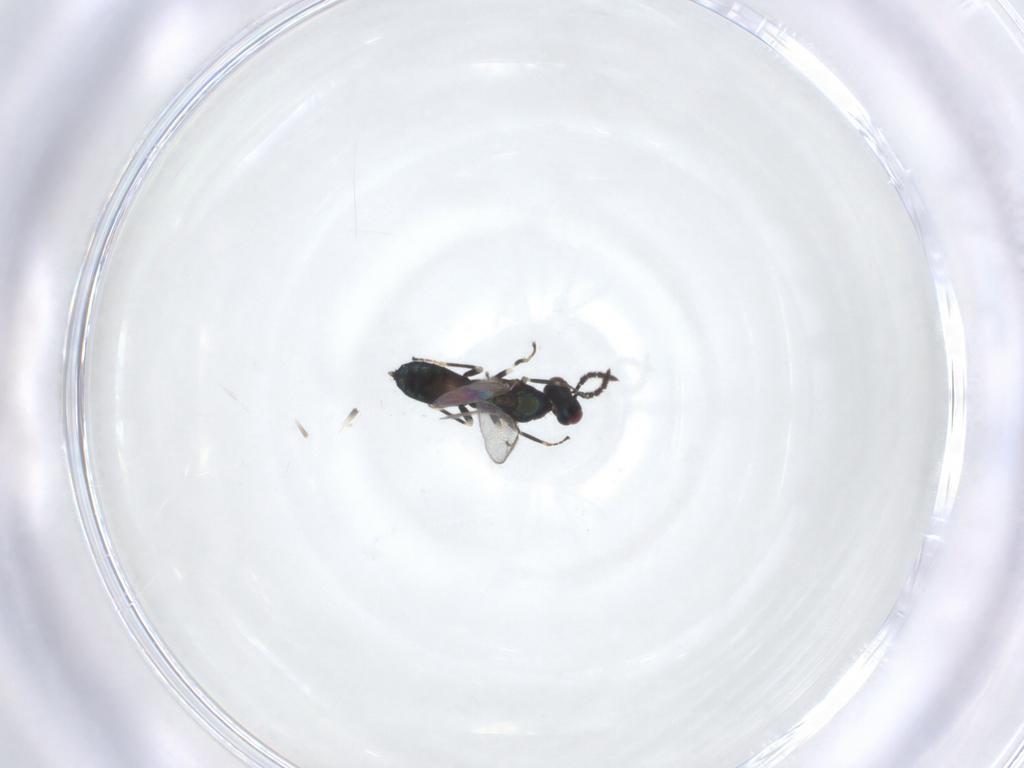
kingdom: Animalia
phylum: Arthropoda
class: Insecta
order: Hymenoptera
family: Eulophidae
